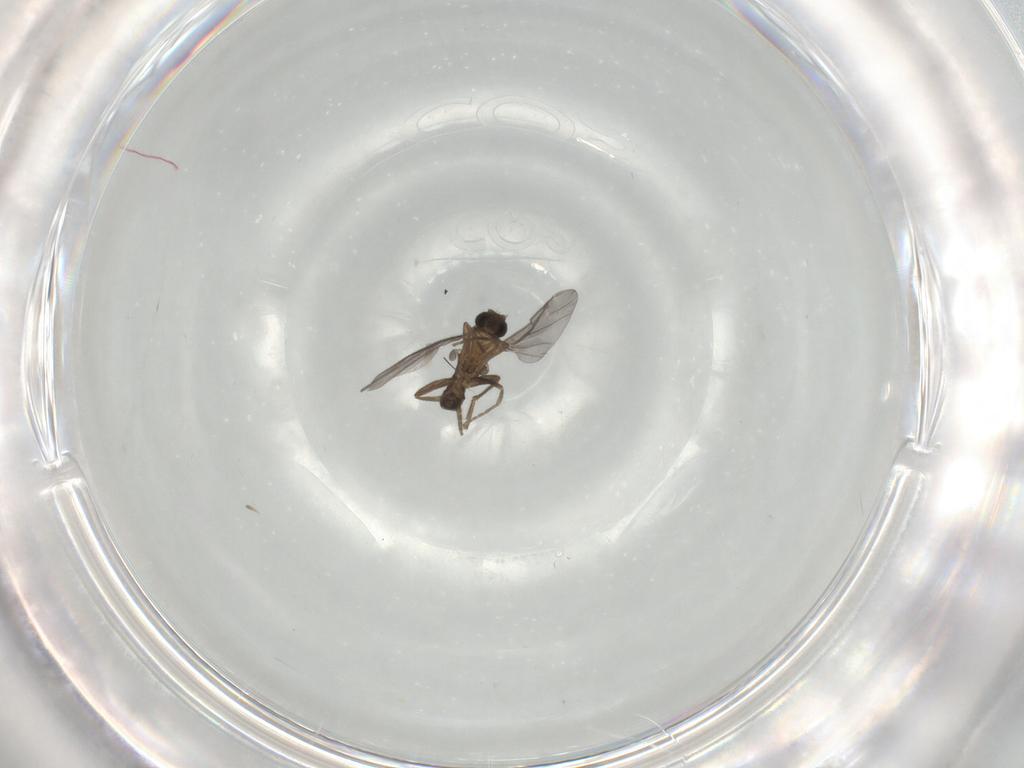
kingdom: Animalia
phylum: Arthropoda
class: Insecta
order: Diptera
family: Phoridae
